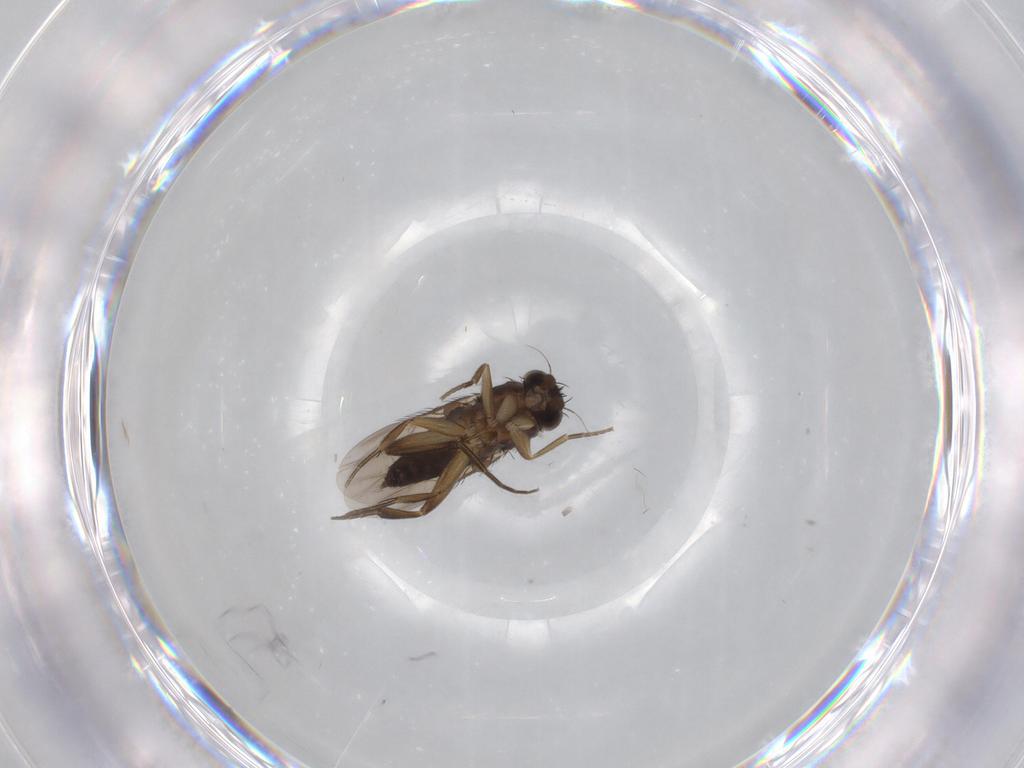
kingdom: Animalia
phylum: Arthropoda
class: Insecta
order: Diptera
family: Phoridae
